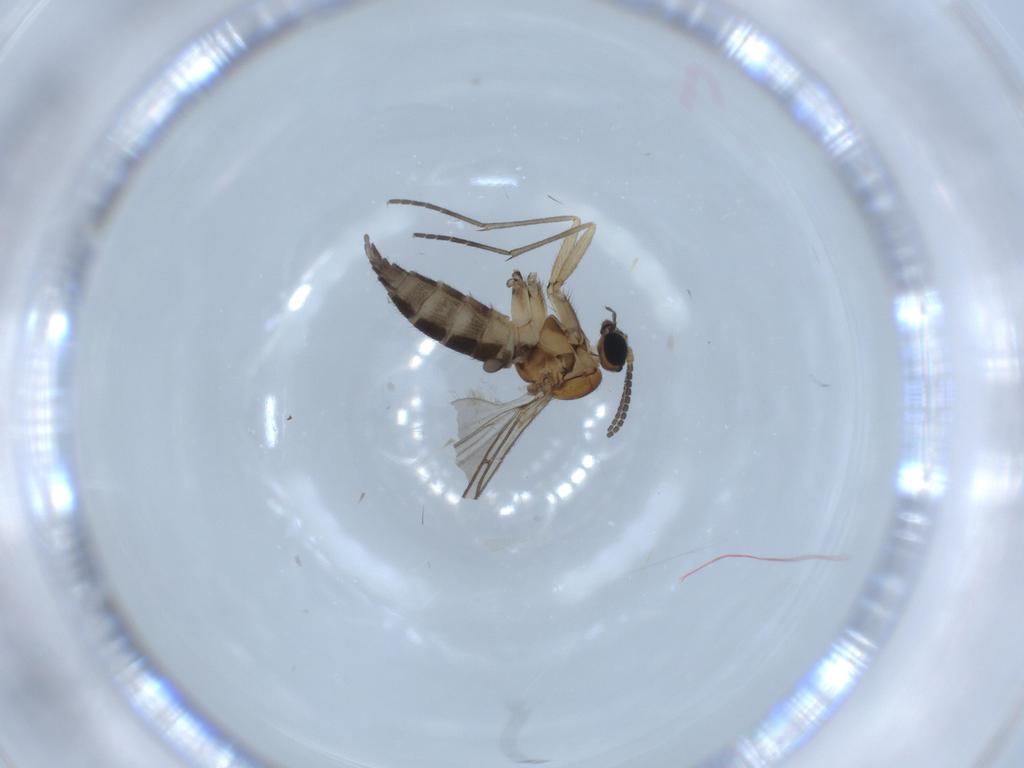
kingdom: Animalia
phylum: Arthropoda
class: Insecta
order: Diptera
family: Sciaridae
